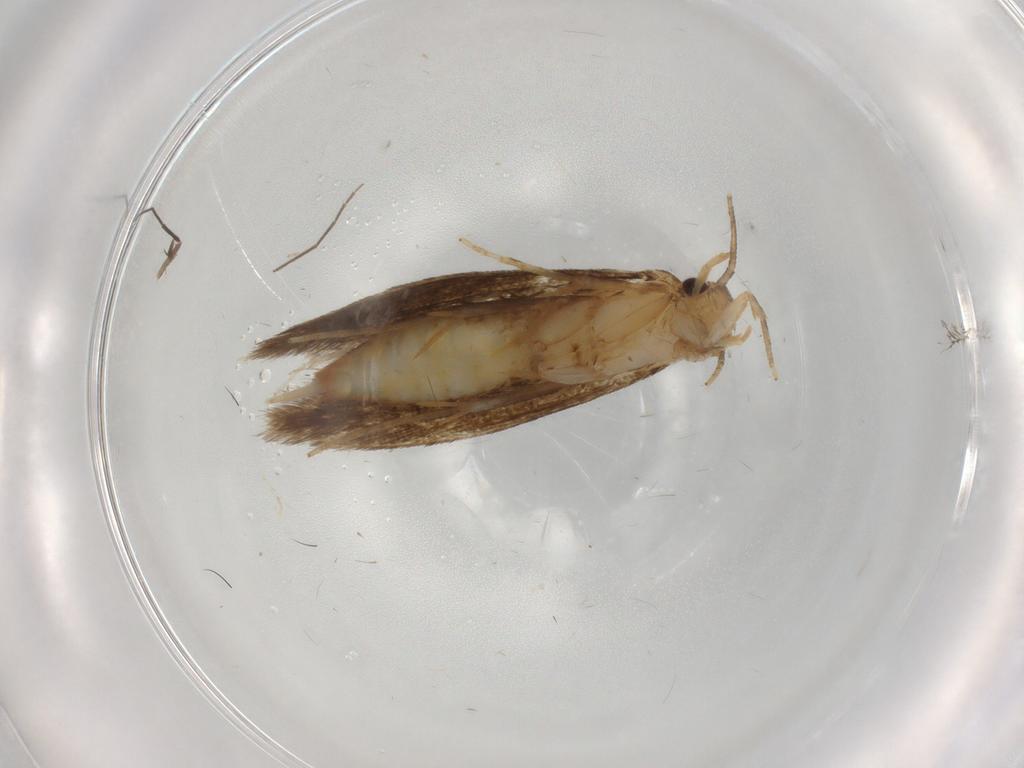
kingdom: Animalia
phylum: Arthropoda
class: Insecta
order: Lepidoptera
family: Tineidae
